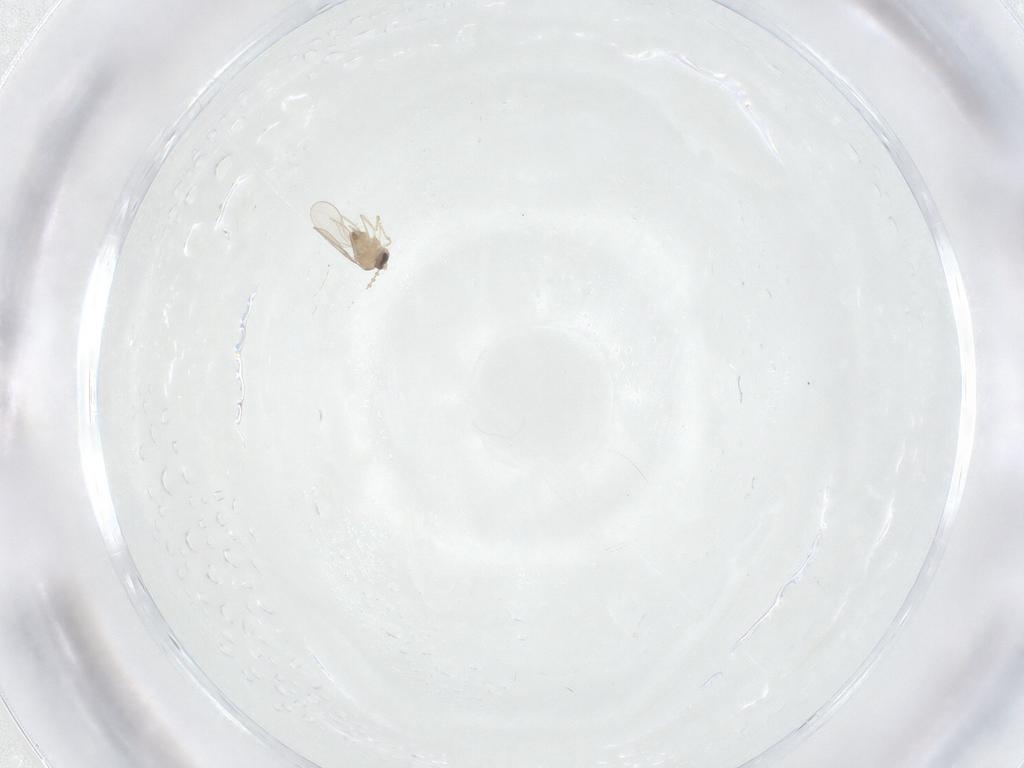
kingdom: Animalia
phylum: Arthropoda
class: Insecta
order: Diptera
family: Cecidomyiidae
